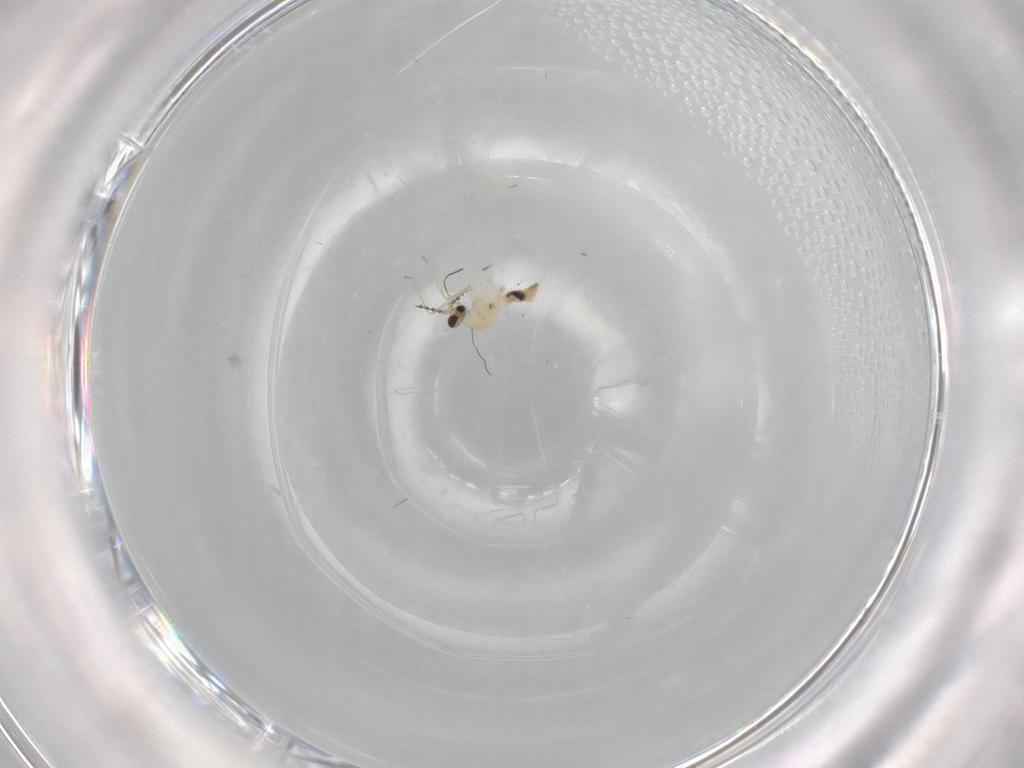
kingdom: Animalia
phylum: Arthropoda
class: Insecta
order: Diptera
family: Cecidomyiidae
